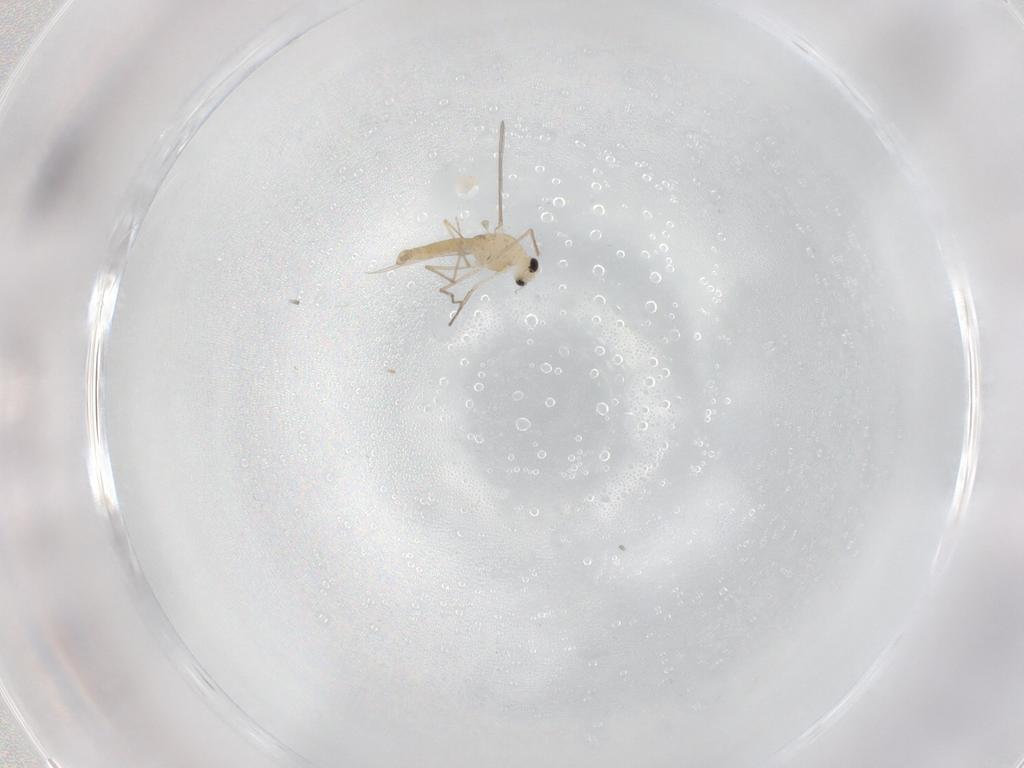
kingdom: Animalia
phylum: Arthropoda
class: Insecta
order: Diptera
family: Chironomidae
